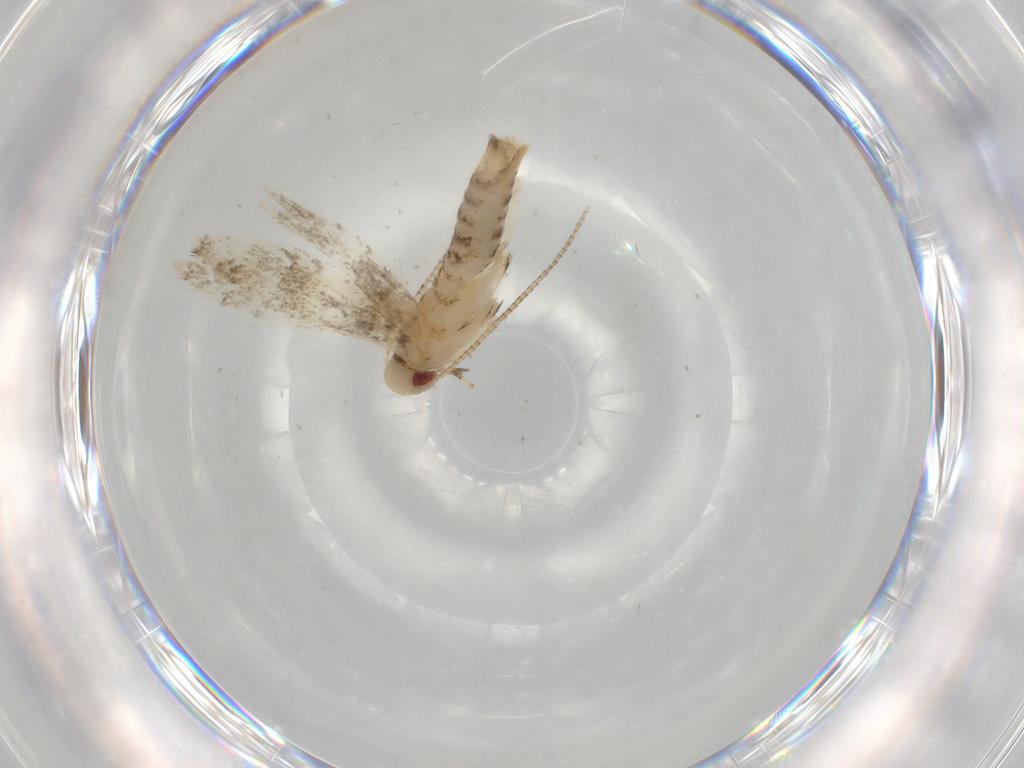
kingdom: Animalia
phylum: Arthropoda
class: Insecta
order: Lepidoptera
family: Gracillariidae
